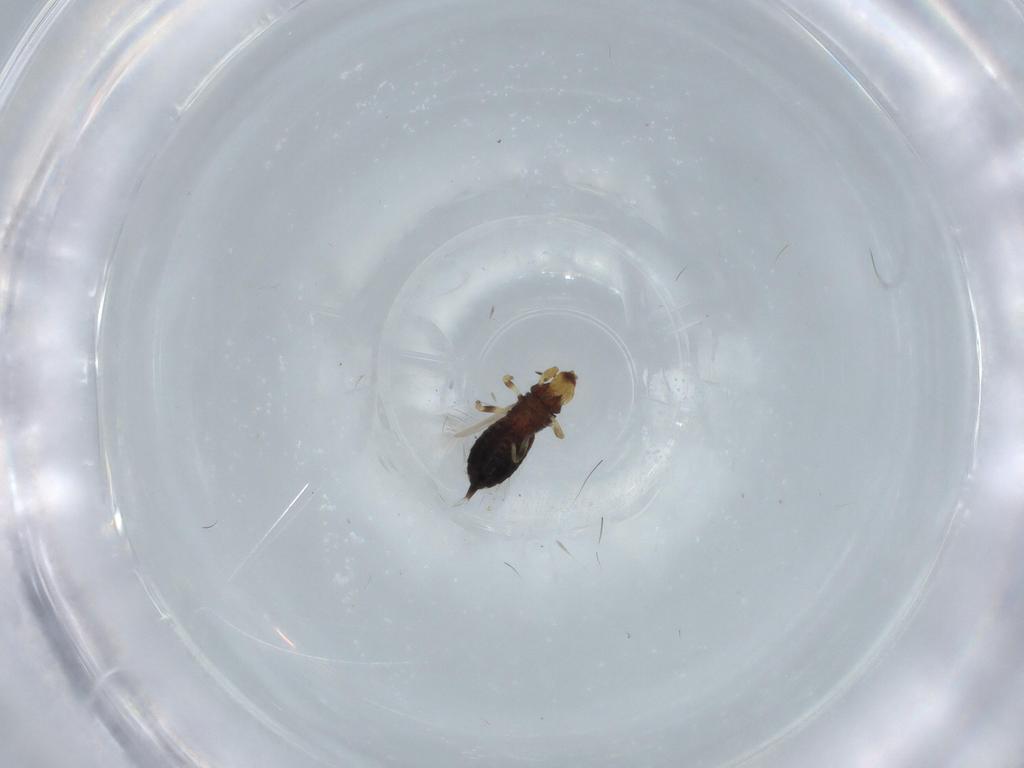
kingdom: Animalia
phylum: Arthropoda
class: Insecta
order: Thysanoptera
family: Phlaeothripidae
